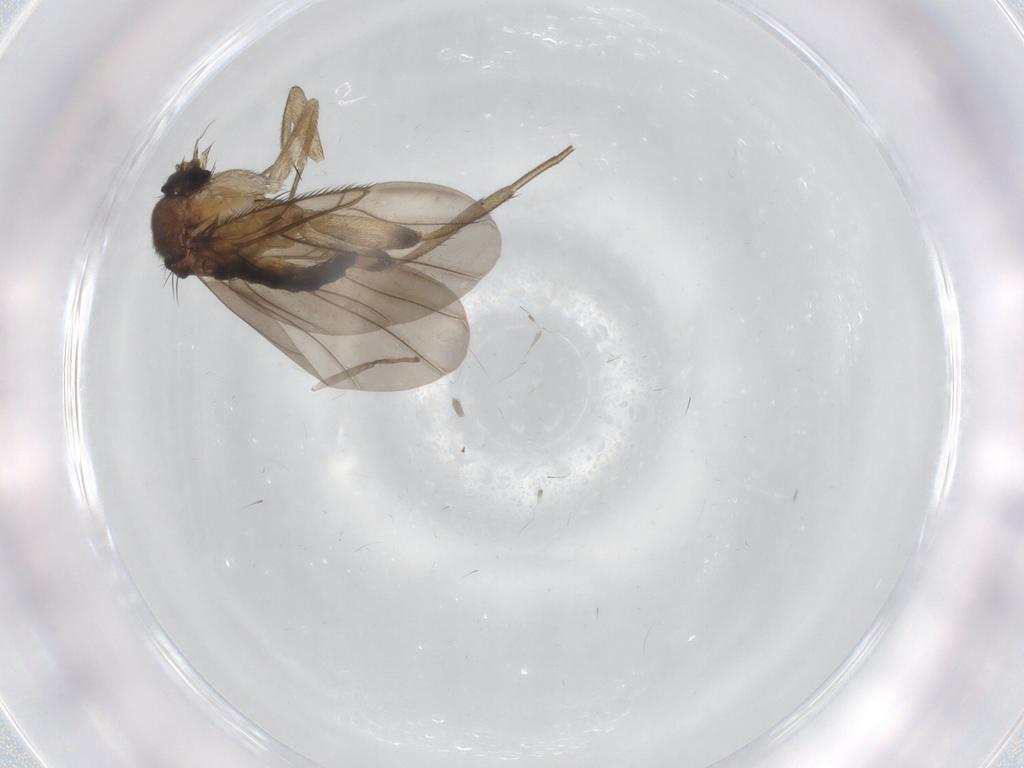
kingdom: Animalia
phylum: Arthropoda
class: Insecta
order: Diptera
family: Phoridae
